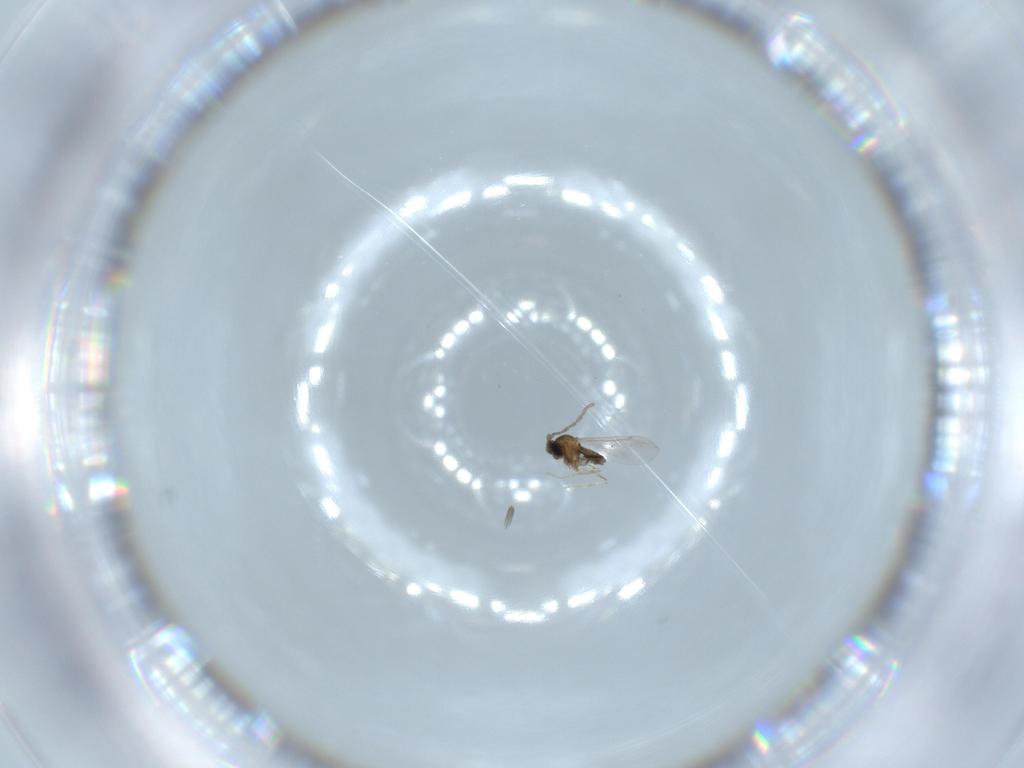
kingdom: Animalia
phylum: Arthropoda
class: Insecta
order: Diptera
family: Cecidomyiidae
